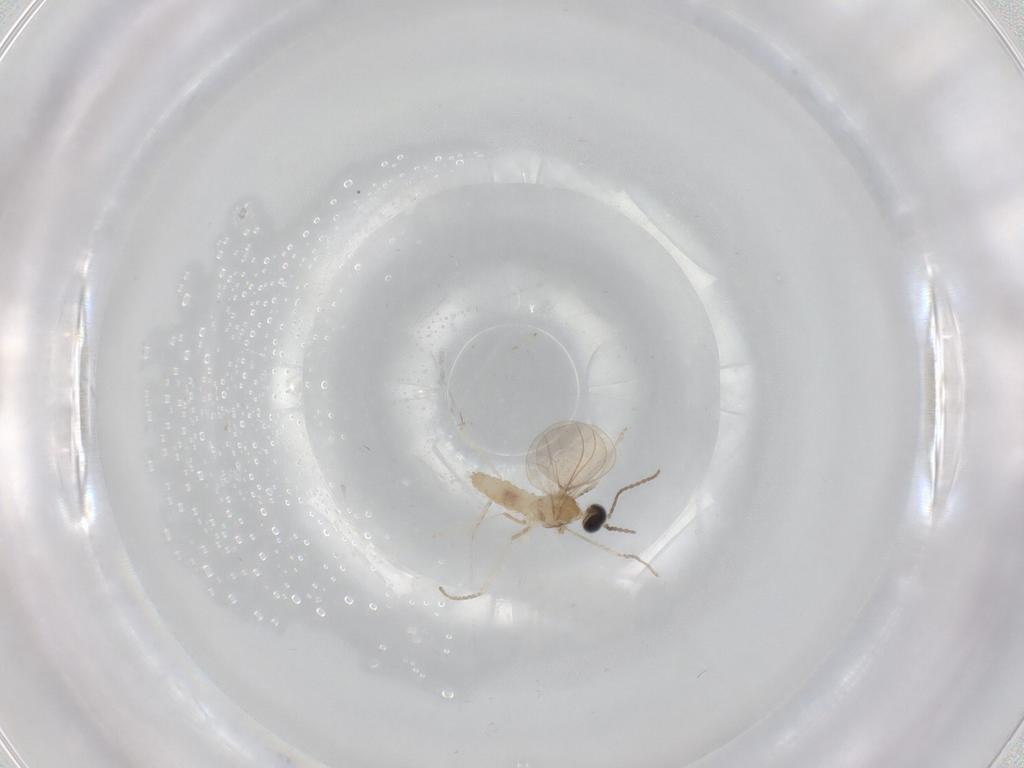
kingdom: Animalia
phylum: Arthropoda
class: Insecta
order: Diptera
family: Cecidomyiidae
